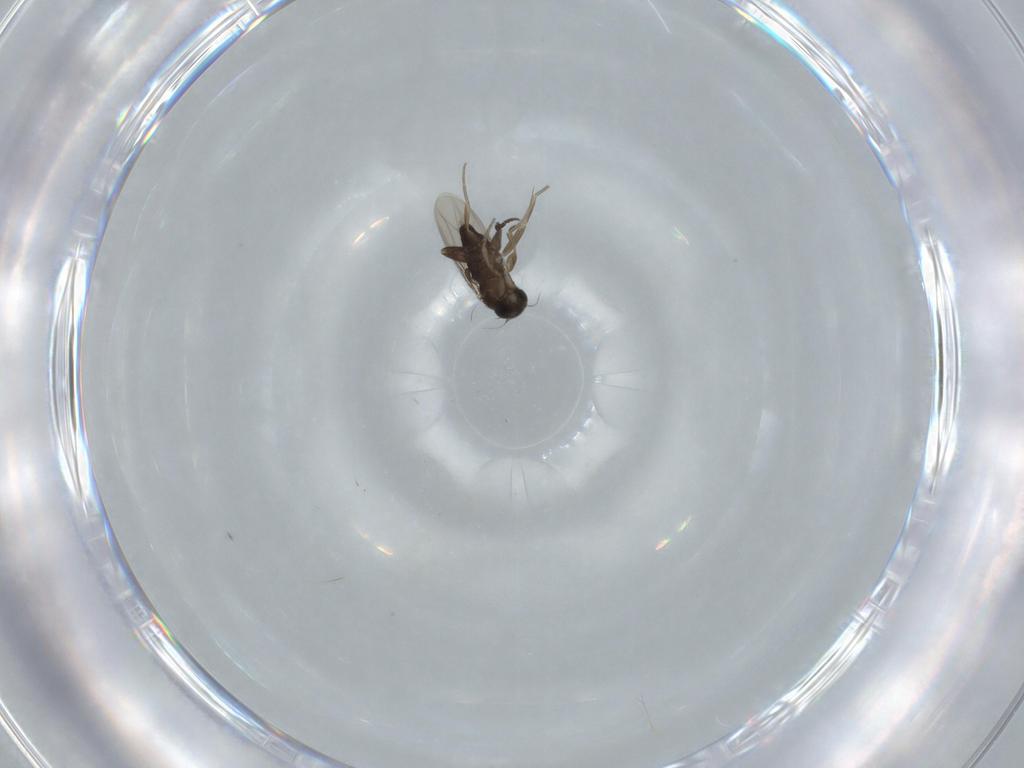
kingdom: Animalia
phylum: Arthropoda
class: Insecta
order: Diptera
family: Phoridae
